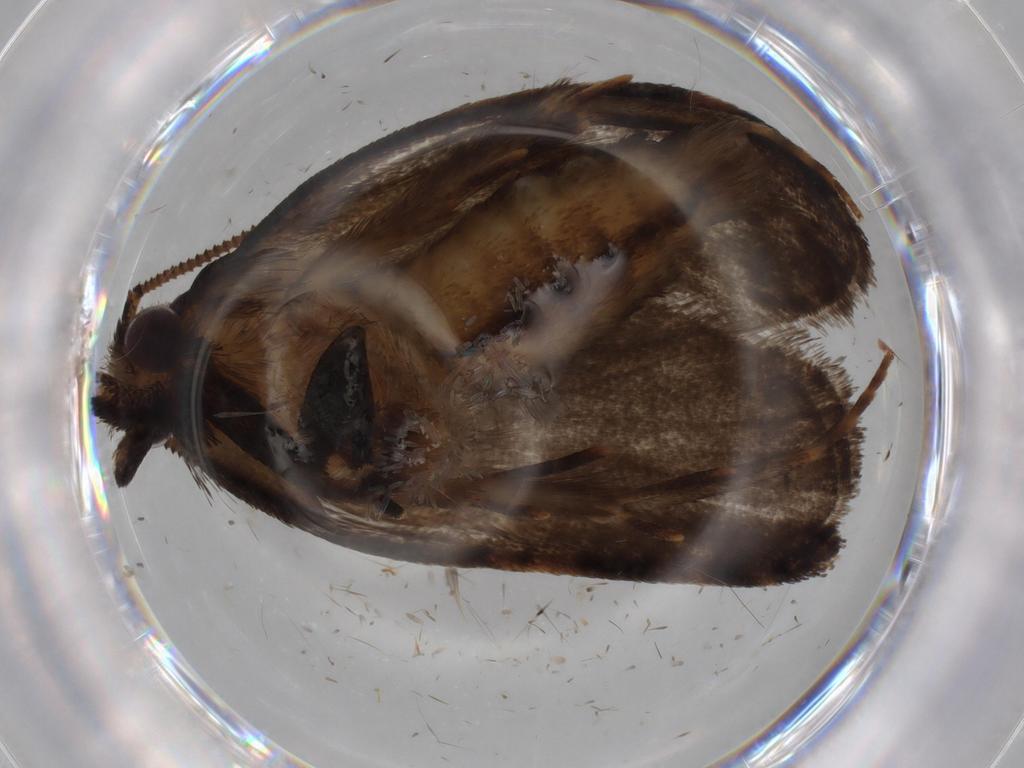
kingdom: Animalia
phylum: Arthropoda
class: Insecta
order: Lepidoptera
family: Tineidae
